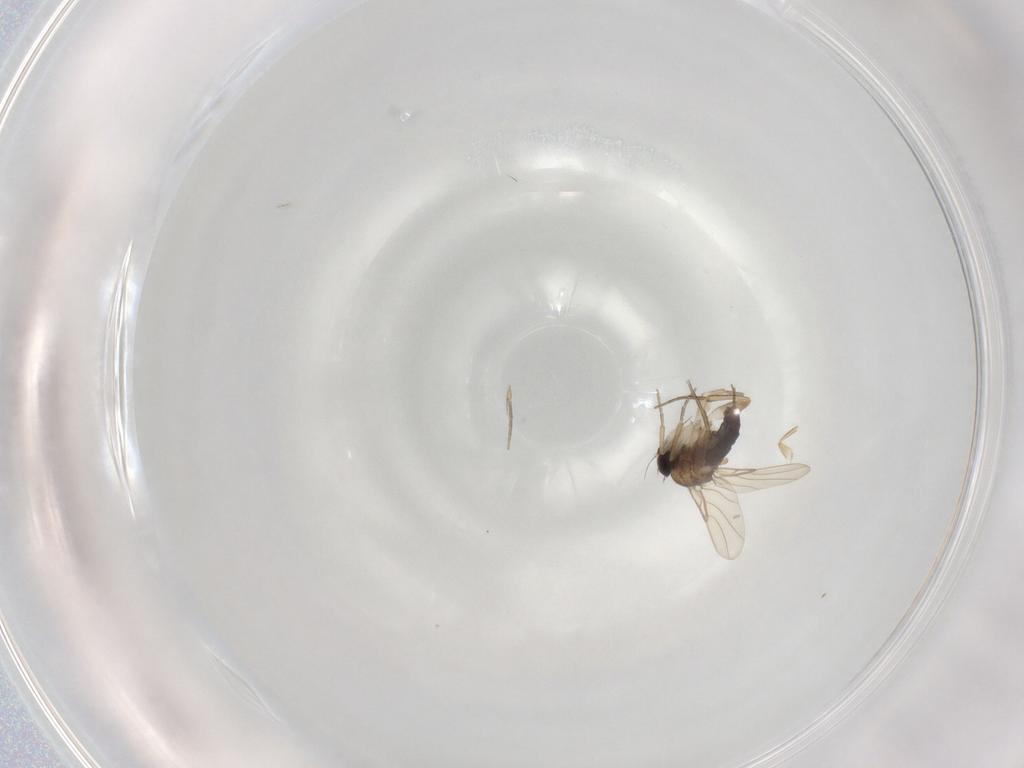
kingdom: Animalia
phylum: Arthropoda
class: Insecta
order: Diptera
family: Phoridae
